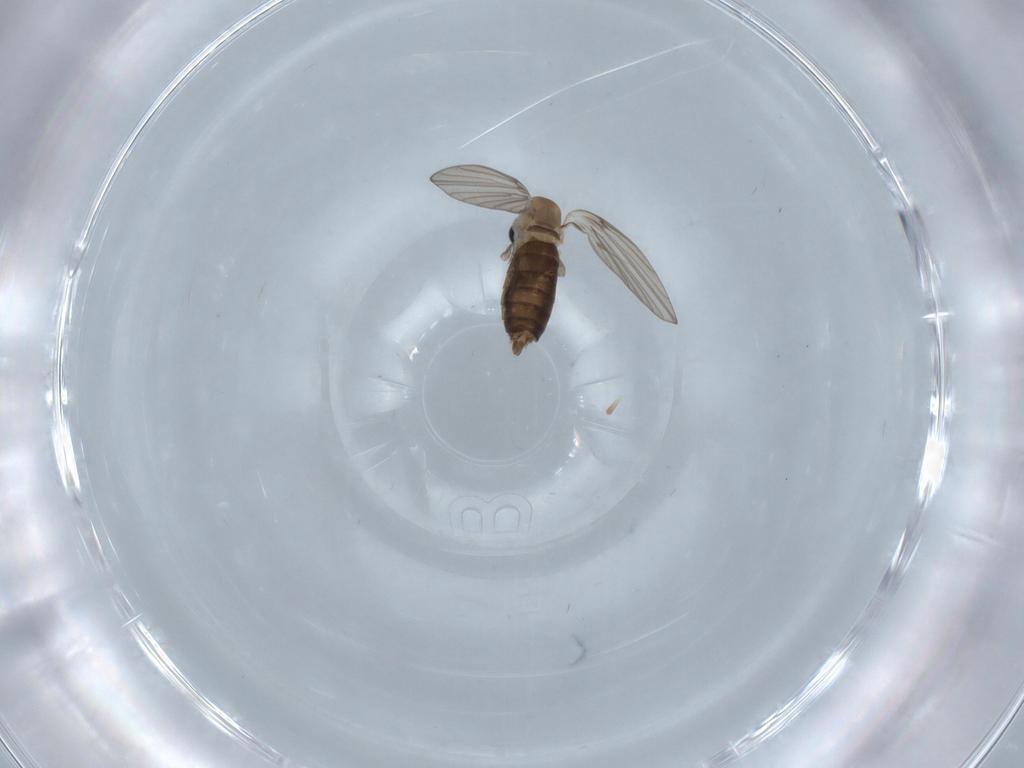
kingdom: Animalia
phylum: Arthropoda
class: Insecta
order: Diptera
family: Psychodidae
